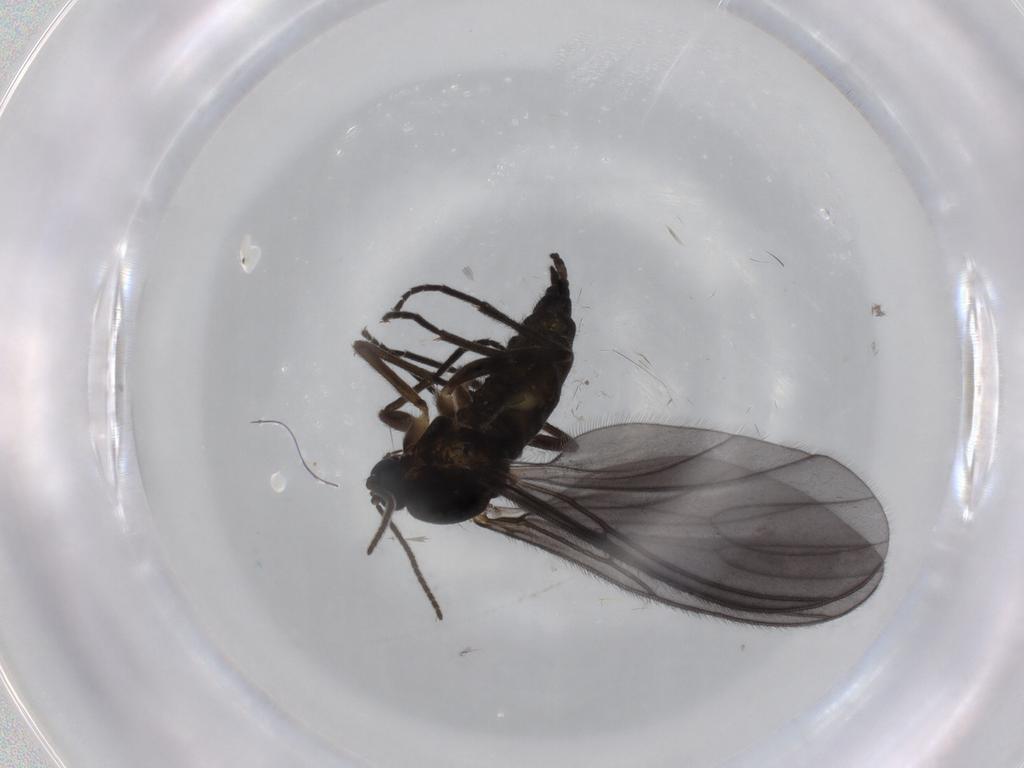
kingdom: Animalia
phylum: Arthropoda
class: Insecta
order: Diptera
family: Sciaridae
